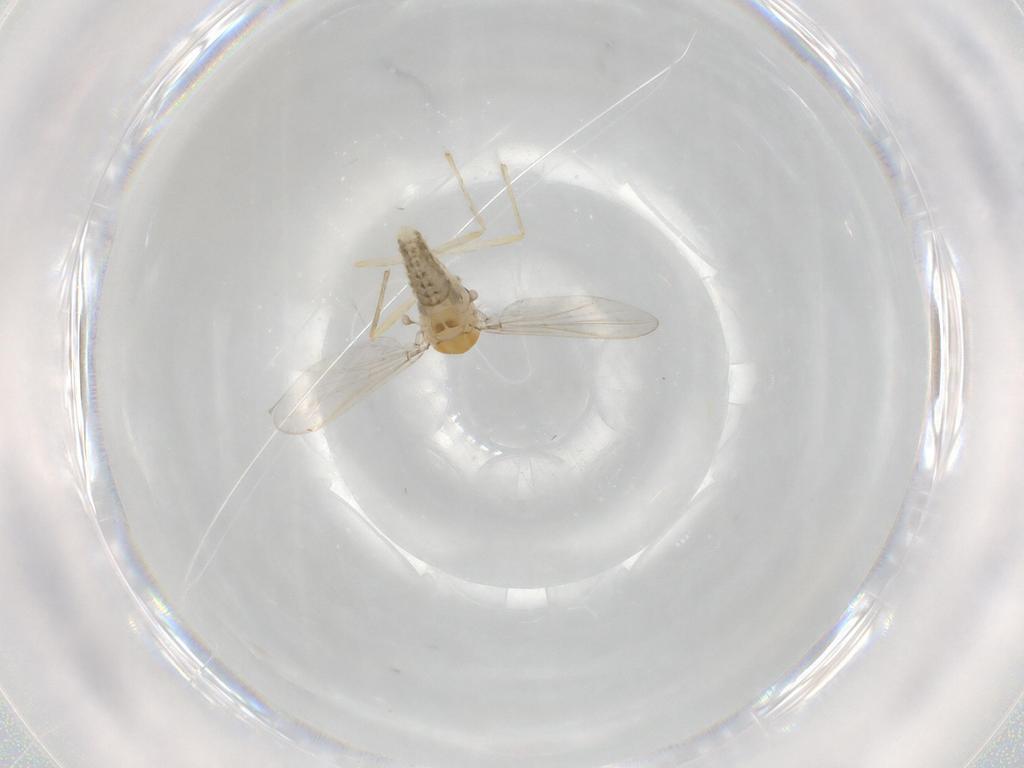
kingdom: Animalia
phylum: Arthropoda
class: Insecta
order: Diptera
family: Chironomidae
